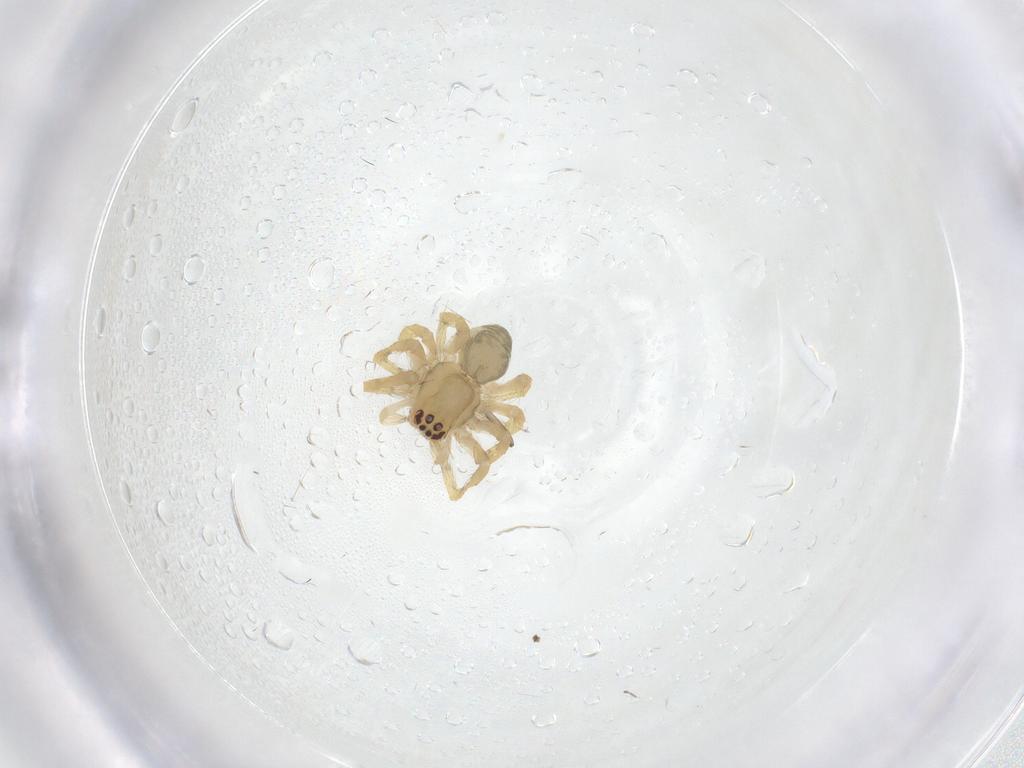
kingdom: Animalia
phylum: Arthropoda
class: Arachnida
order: Araneae
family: Desidae
